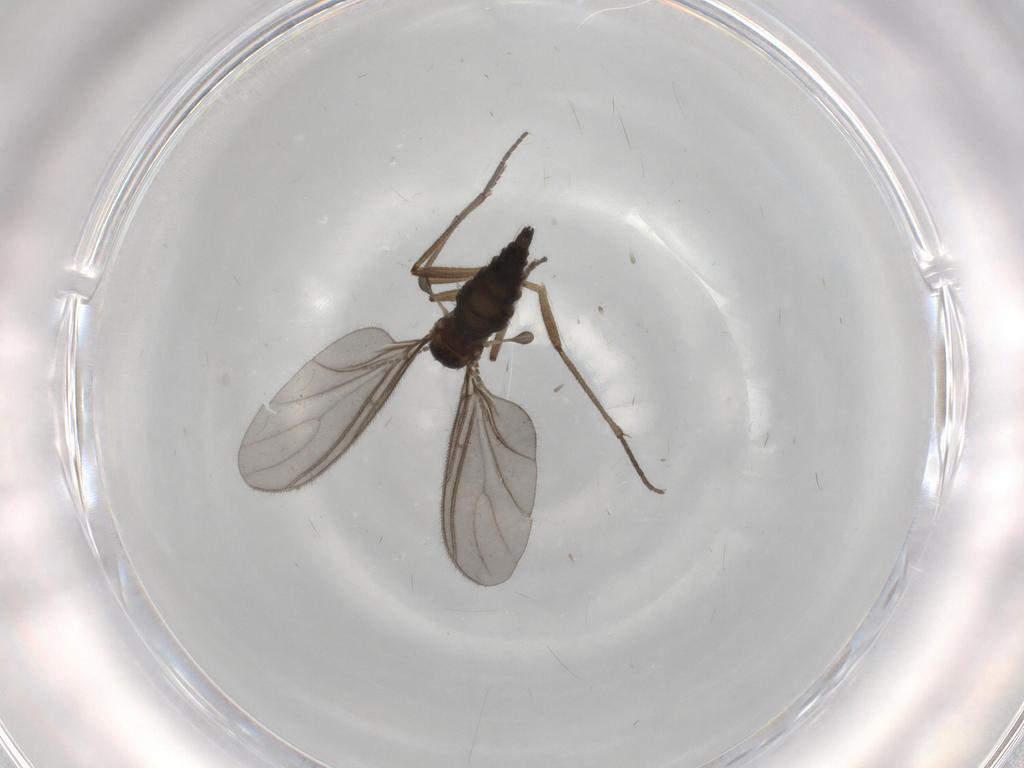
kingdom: Animalia
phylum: Arthropoda
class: Insecta
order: Diptera
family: Sciaridae
